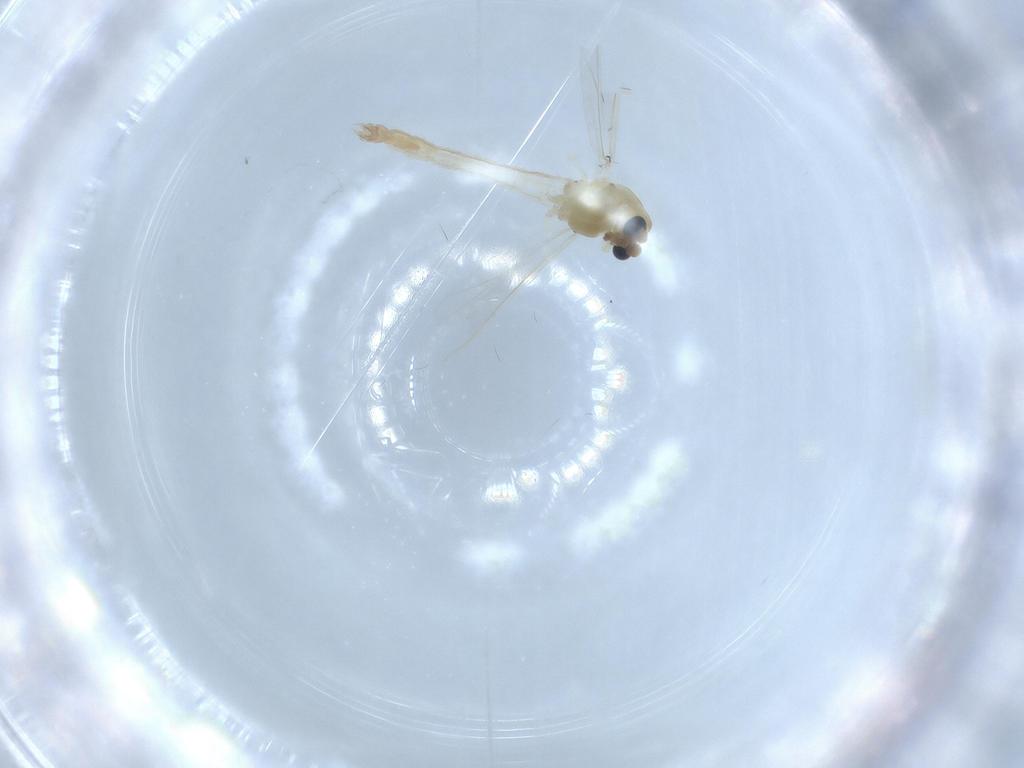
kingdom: Animalia
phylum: Arthropoda
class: Insecta
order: Diptera
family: Chironomidae
